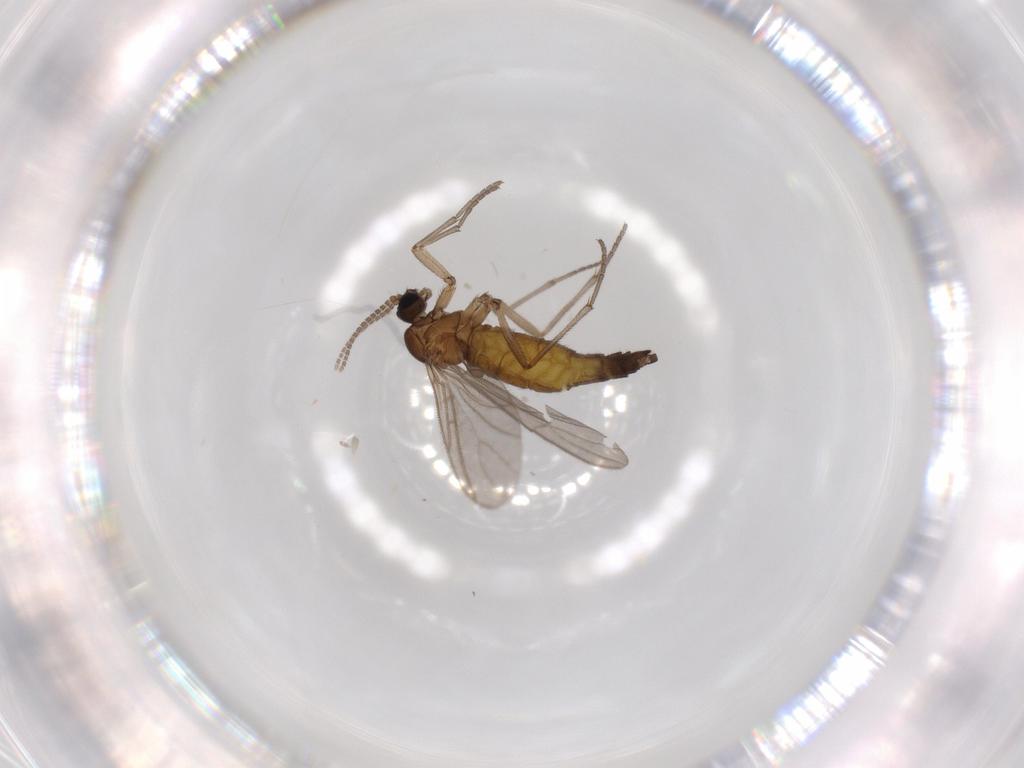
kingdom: Animalia
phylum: Arthropoda
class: Insecta
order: Diptera
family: Sciaridae
